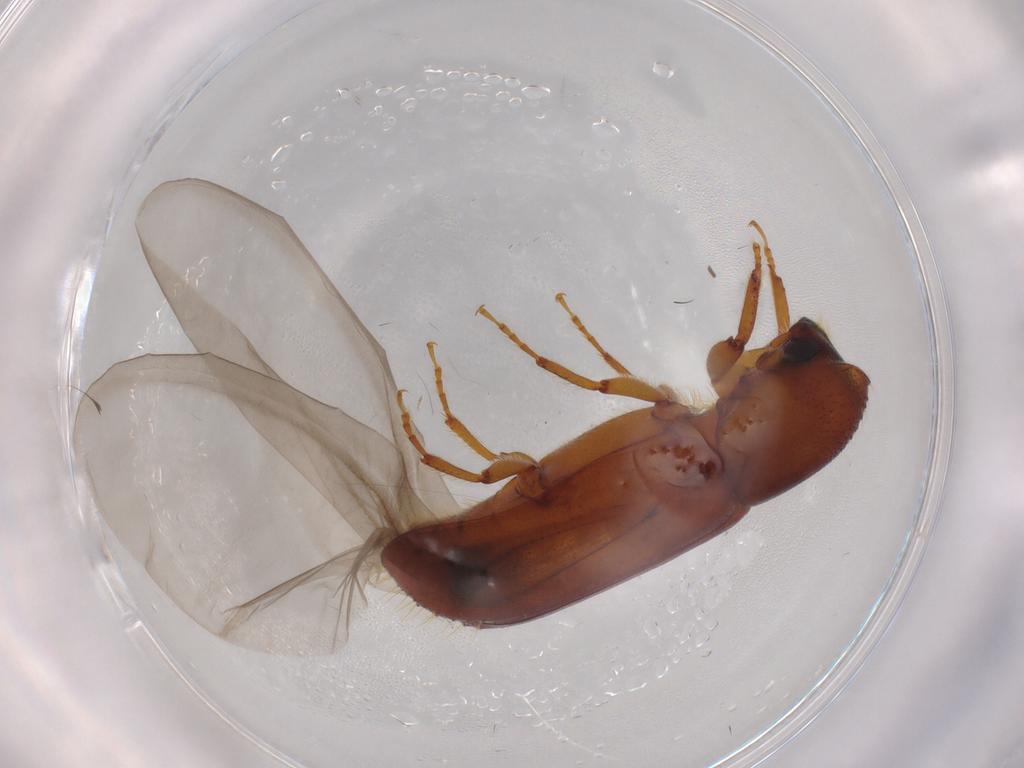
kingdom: Animalia
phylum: Arthropoda
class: Insecta
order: Coleoptera
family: Curculionidae
